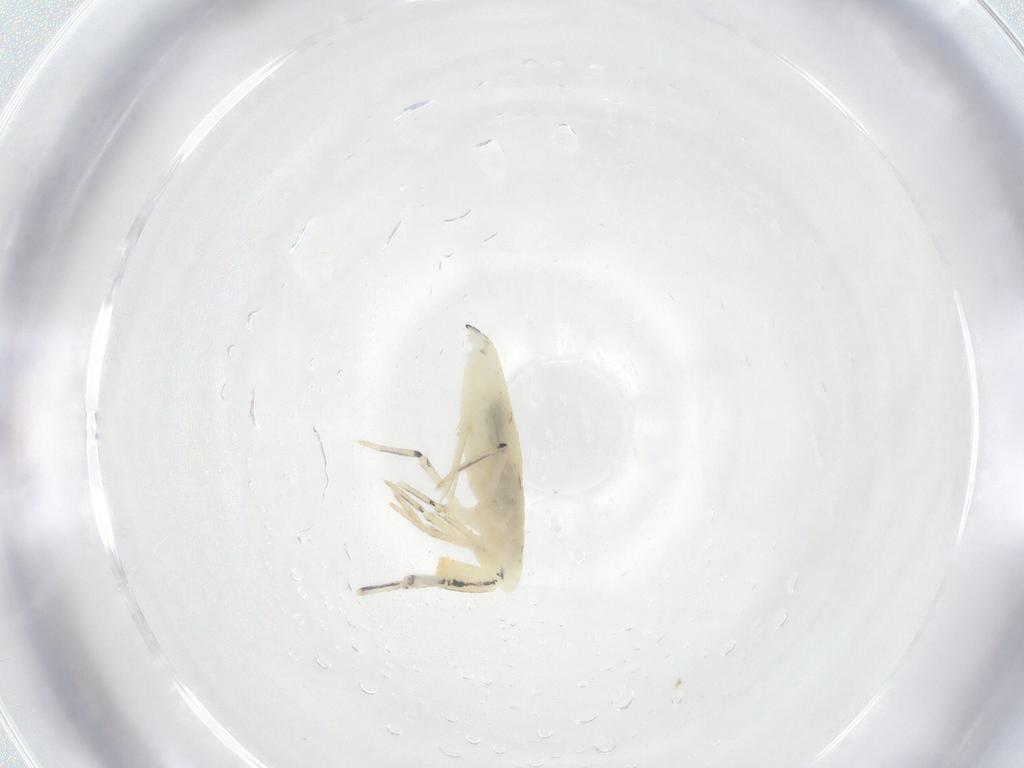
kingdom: Animalia
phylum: Arthropoda
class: Collembola
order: Entomobryomorpha
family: Entomobryidae
